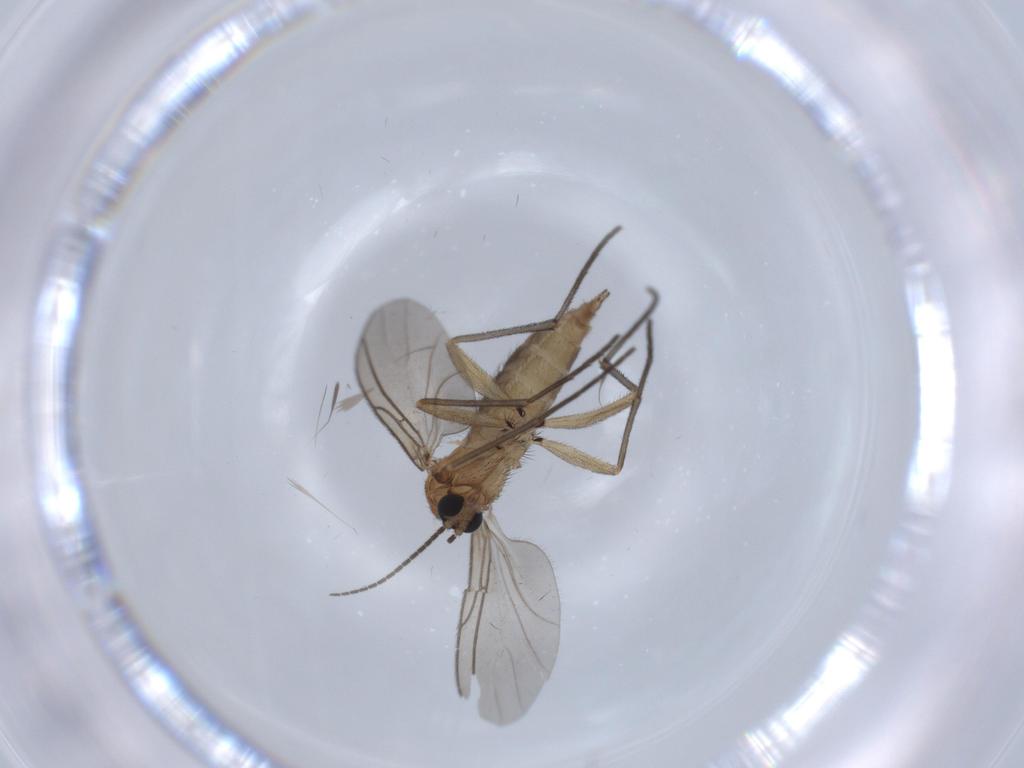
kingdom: Animalia
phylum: Arthropoda
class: Insecta
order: Diptera
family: Sciaridae
